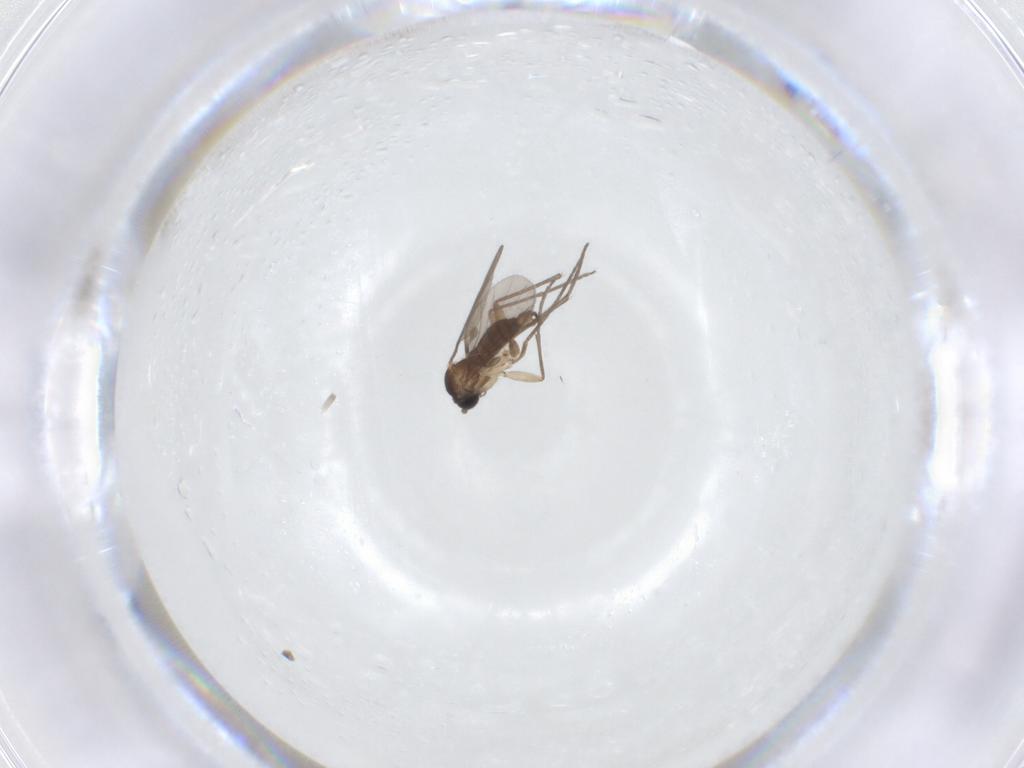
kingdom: Animalia
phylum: Arthropoda
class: Insecta
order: Diptera
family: Sciaridae
